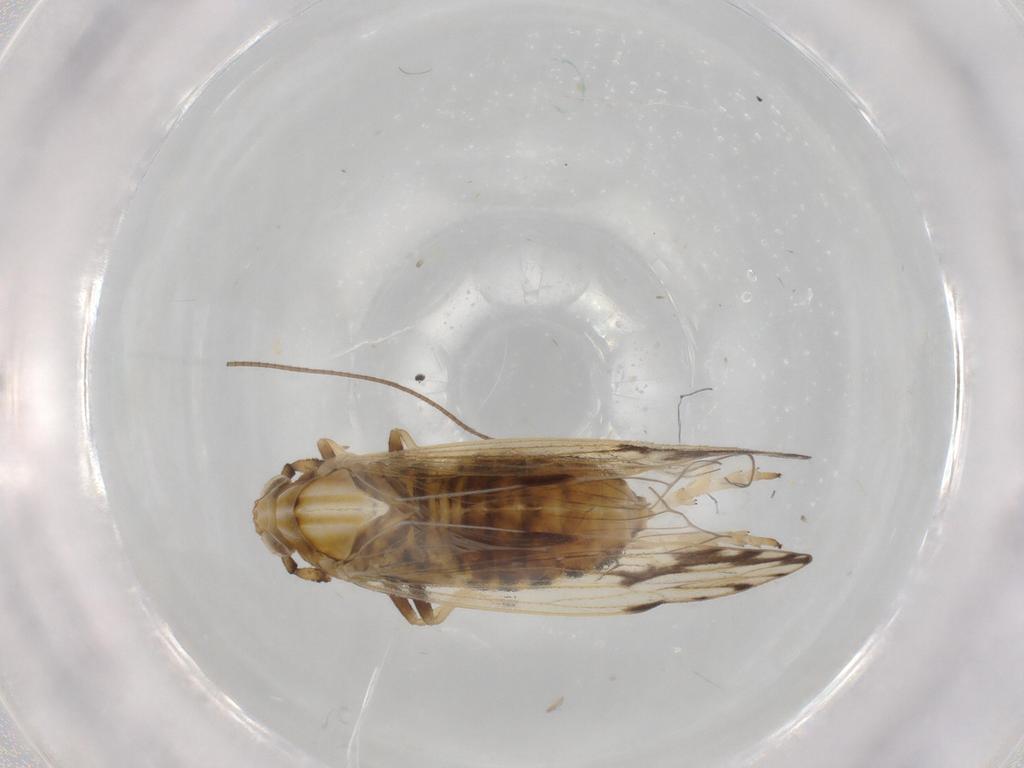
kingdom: Animalia
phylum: Arthropoda
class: Insecta
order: Hemiptera
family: Delphacidae
